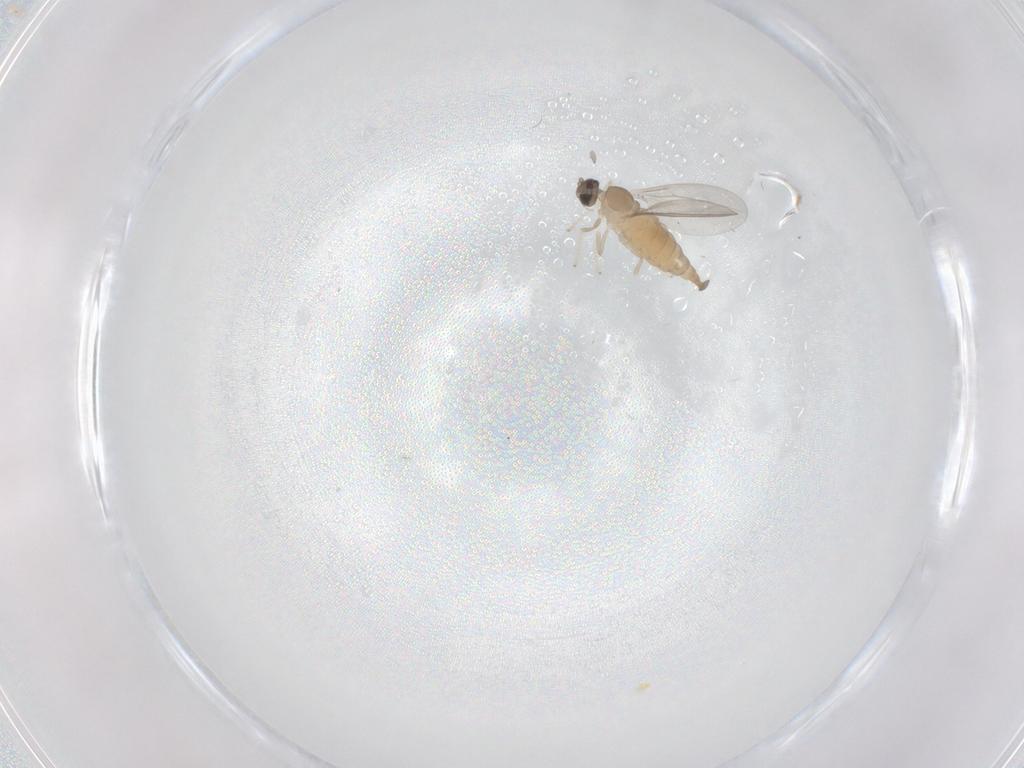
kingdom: Animalia
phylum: Arthropoda
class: Insecta
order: Diptera
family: Cecidomyiidae
